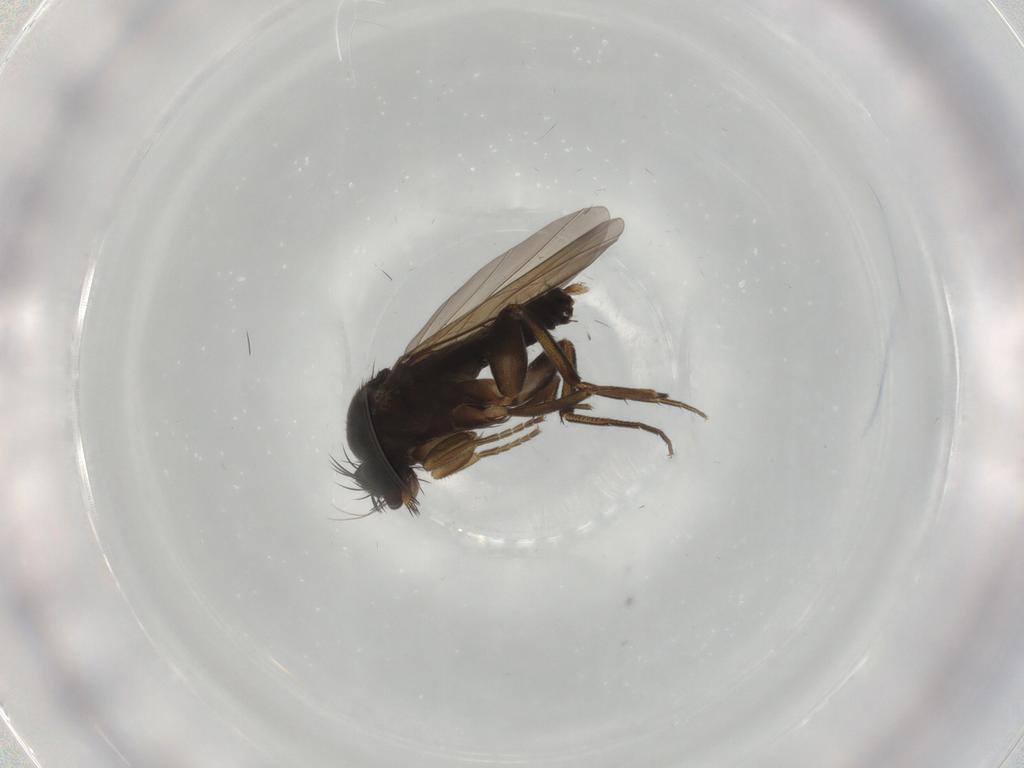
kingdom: Animalia
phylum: Arthropoda
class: Insecta
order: Diptera
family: Phoridae
